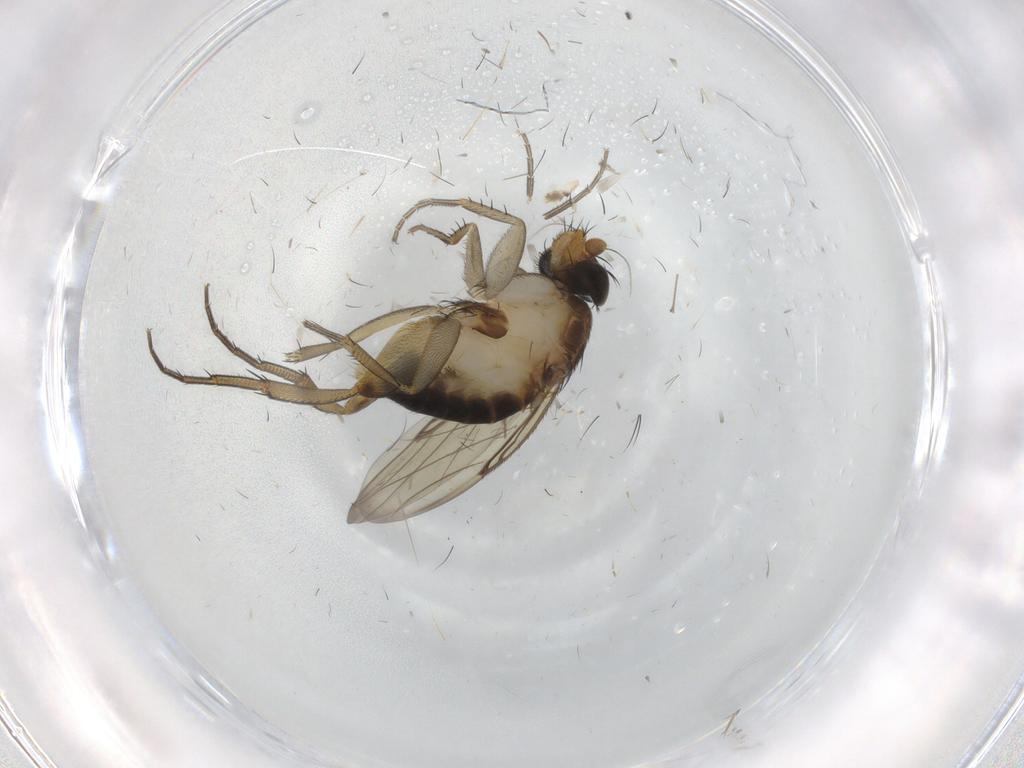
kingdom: Animalia
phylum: Arthropoda
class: Insecta
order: Diptera
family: Phoridae
